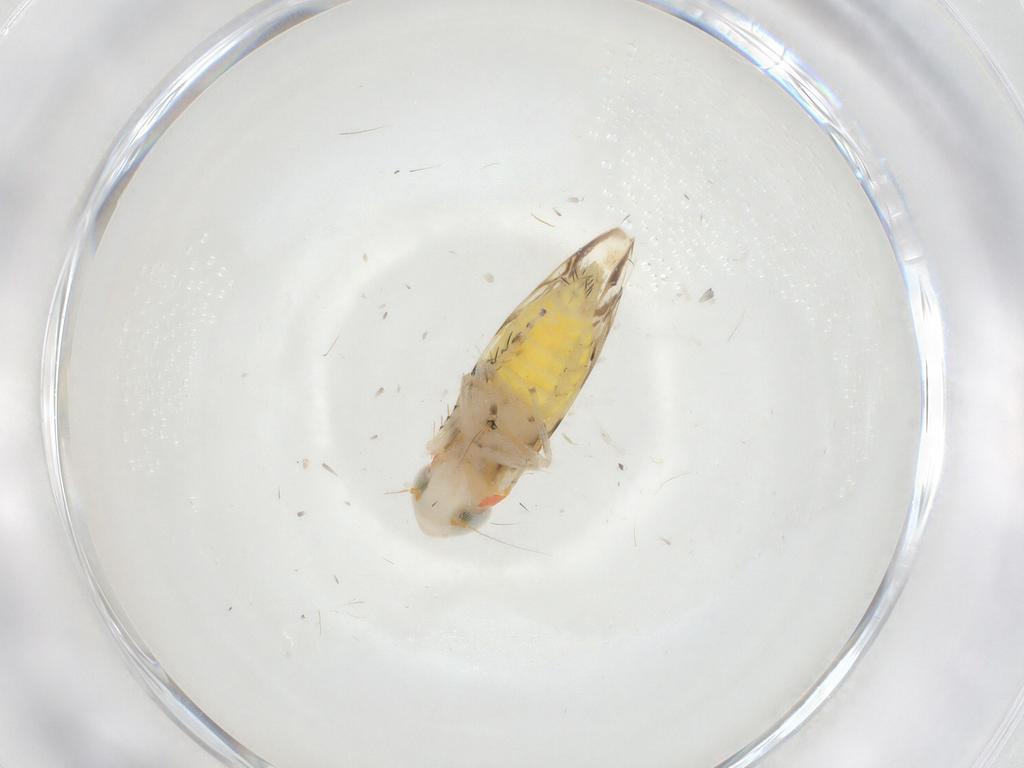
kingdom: Animalia
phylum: Arthropoda
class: Insecta
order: Hemiptera
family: Cicadellidae
